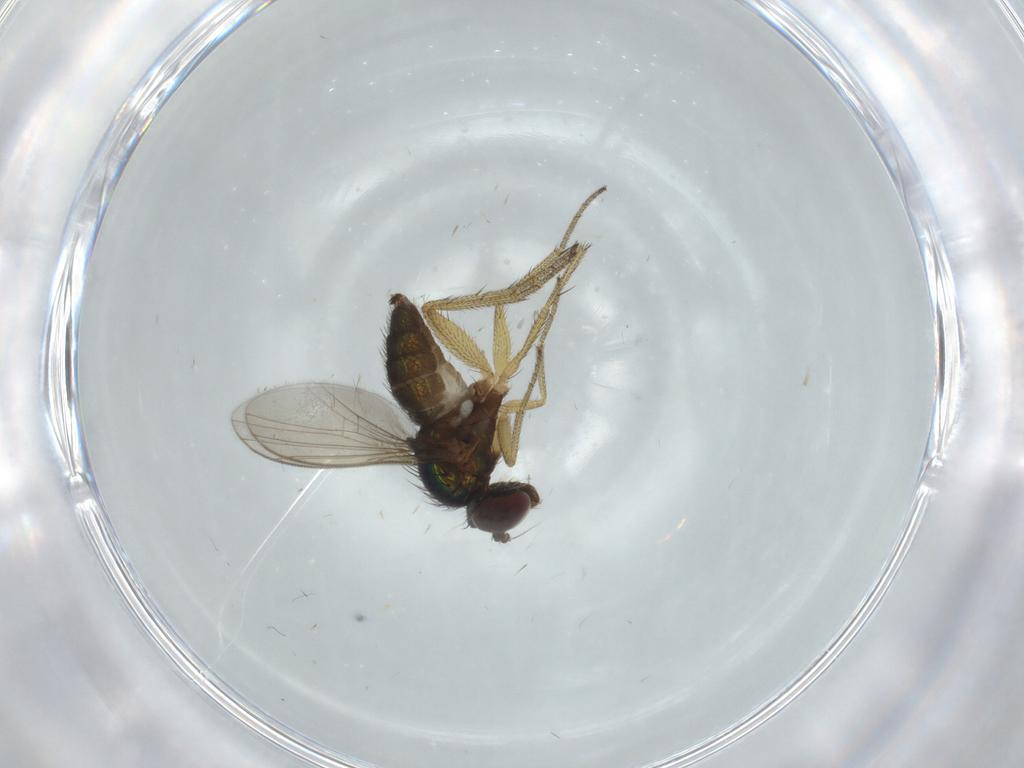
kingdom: Animalia
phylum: Arthropoda
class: Insecta
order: Diptera
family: Dolichopodidae
